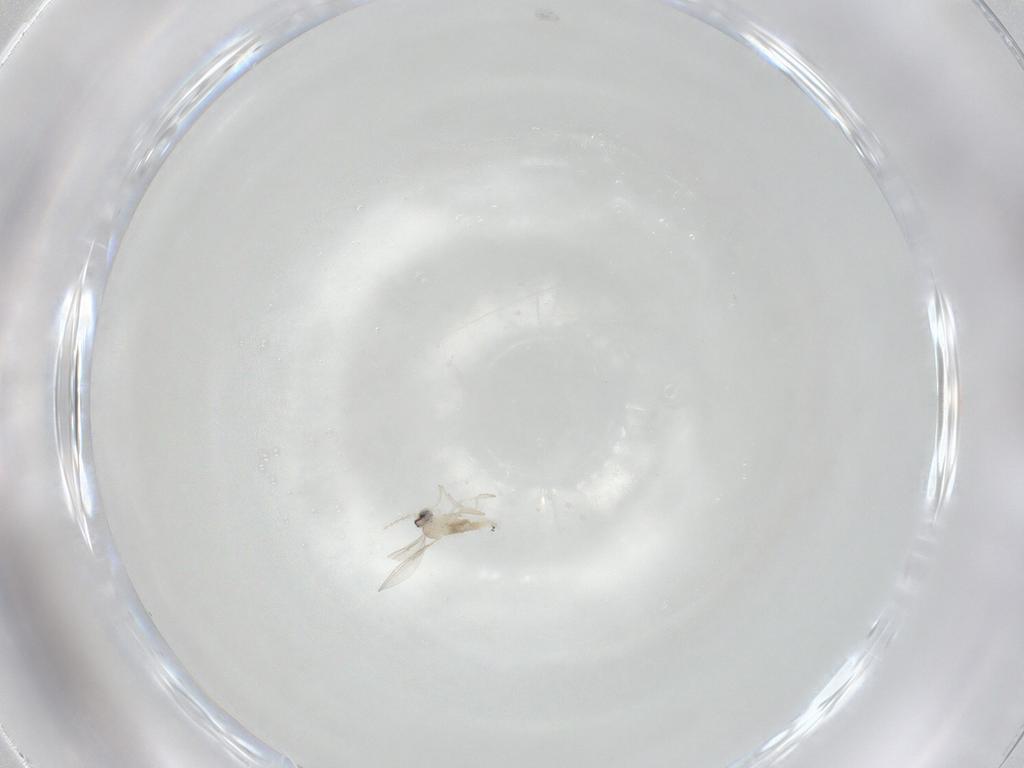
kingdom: Animalia
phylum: Arthropoda
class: Insecta
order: Diptera
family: Cecidomyiidae
